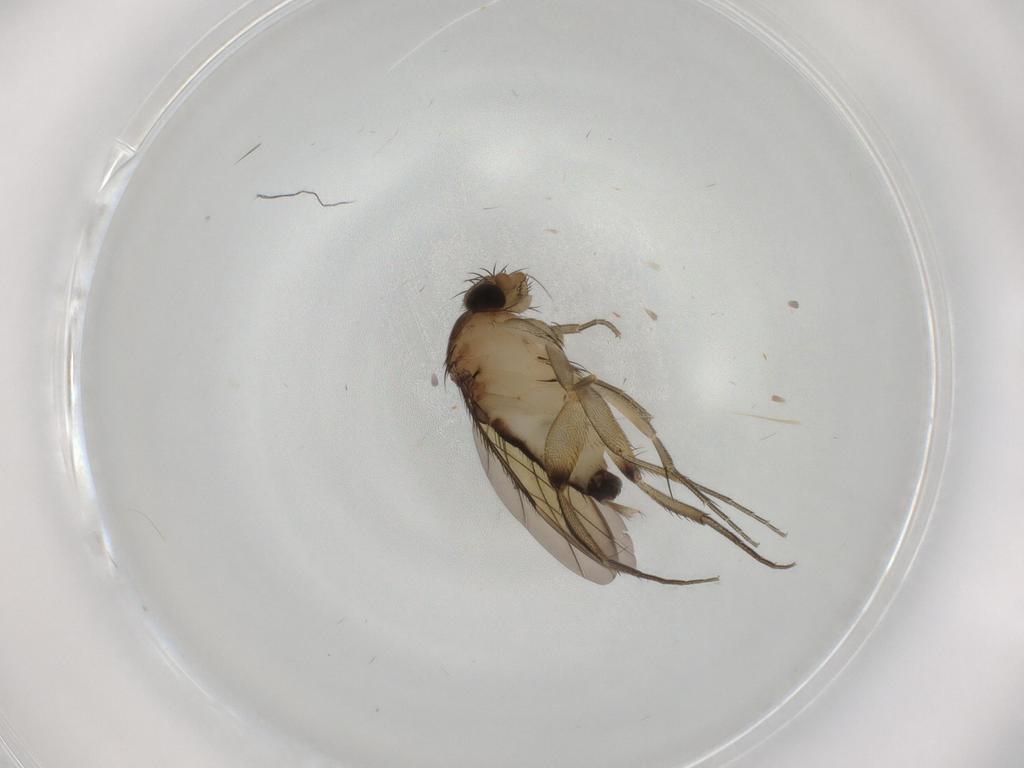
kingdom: Animalia
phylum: Arthropoda
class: Insecta
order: Diptera
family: Phoridae
